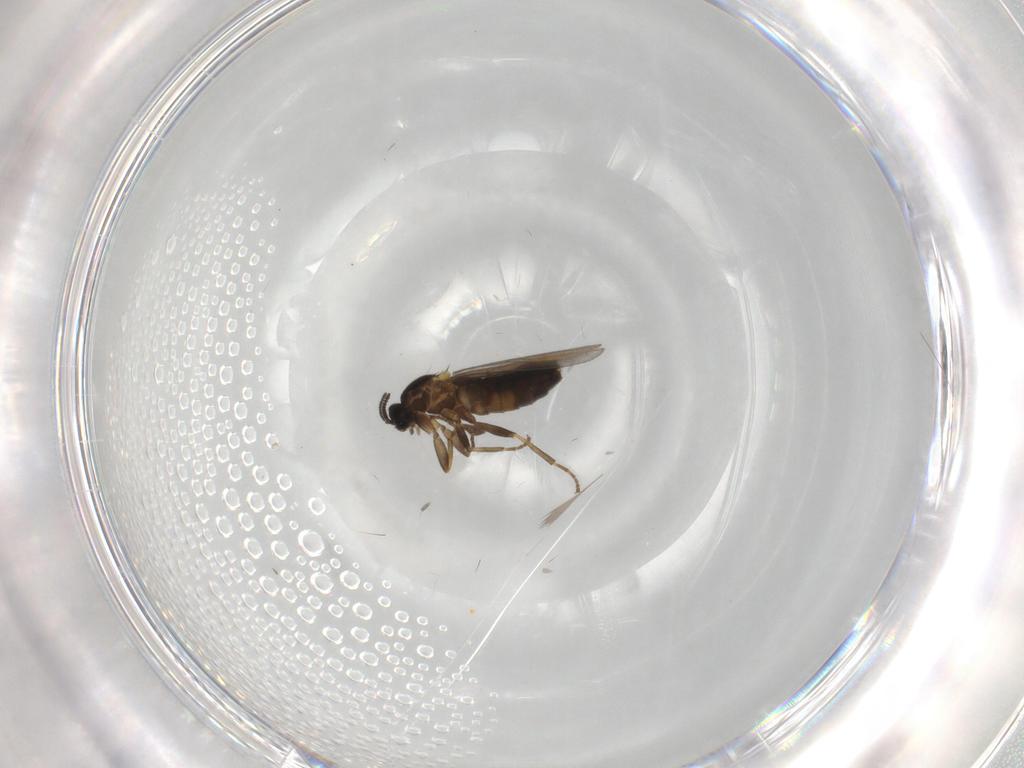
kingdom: Animalia
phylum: Arthropoda
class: Insecta
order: Diptera
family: Scatopsidae
